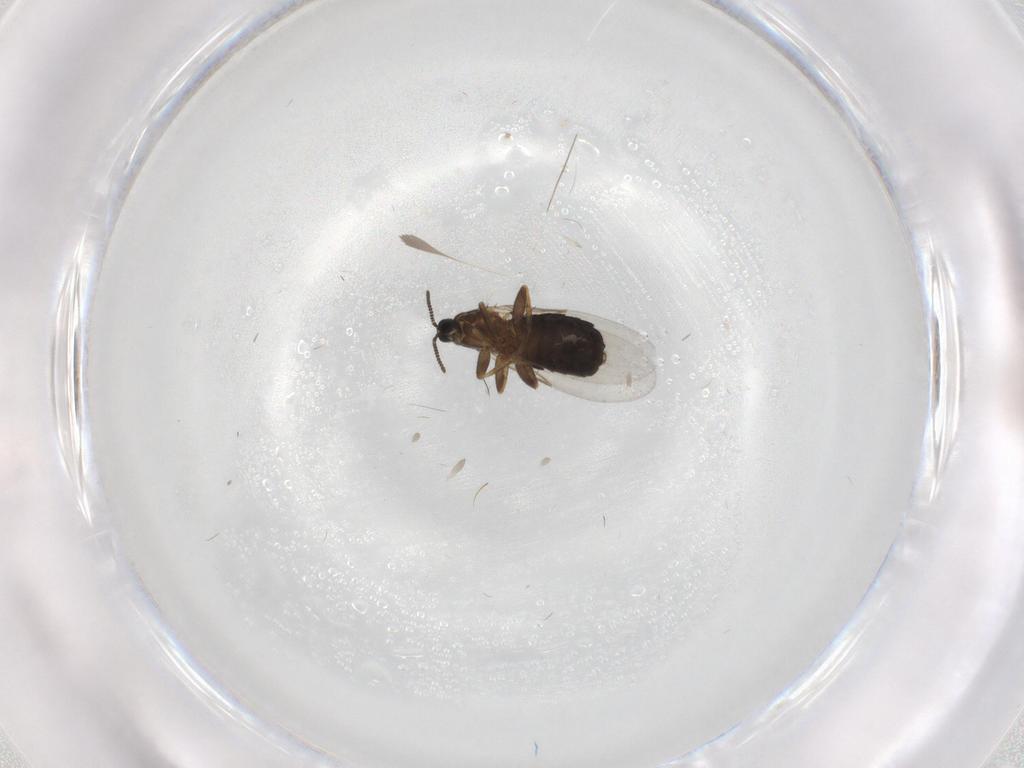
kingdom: Animalia
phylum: Arthropoda
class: Insecta
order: Diptera
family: Scatopsidae
